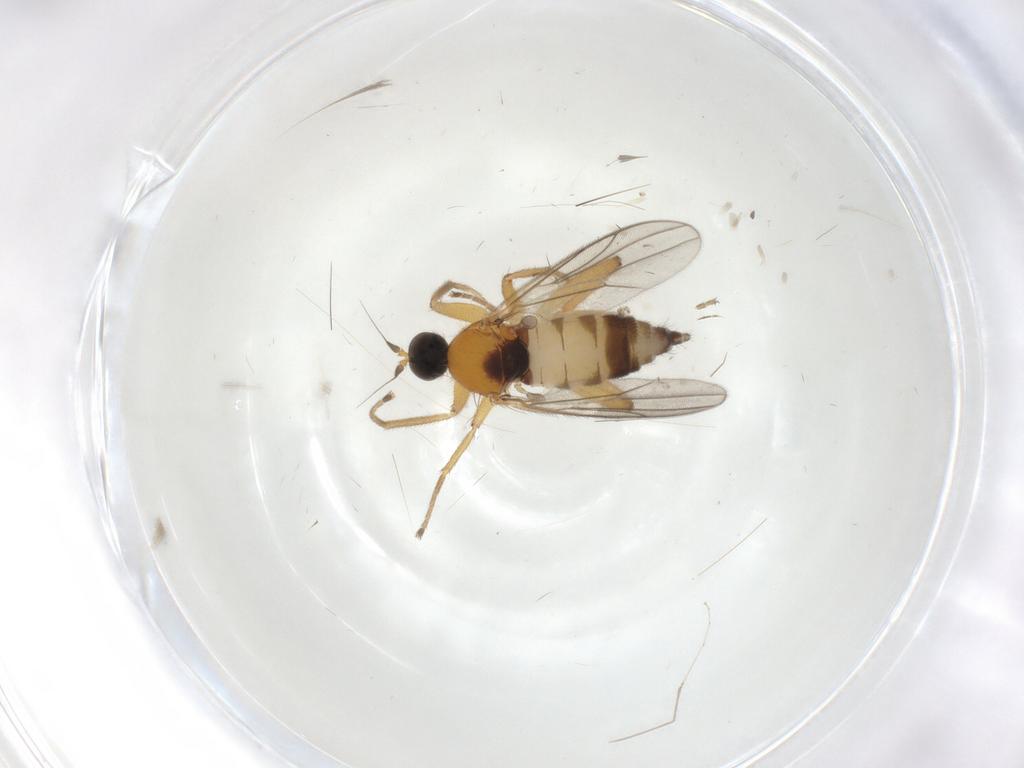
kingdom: Animalia
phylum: Arthropoda
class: Insecta
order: Diptera
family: Hybotidae
